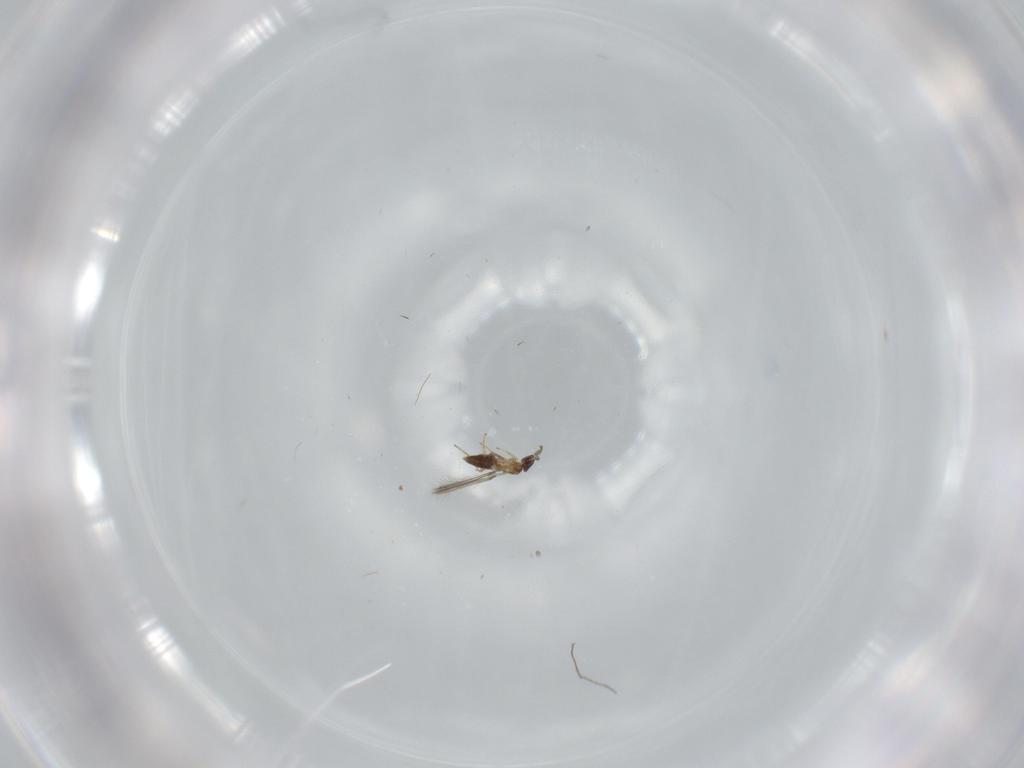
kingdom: Animalia
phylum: Arthropoda
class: Insecta
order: Hymenoptera
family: Mymaridae
